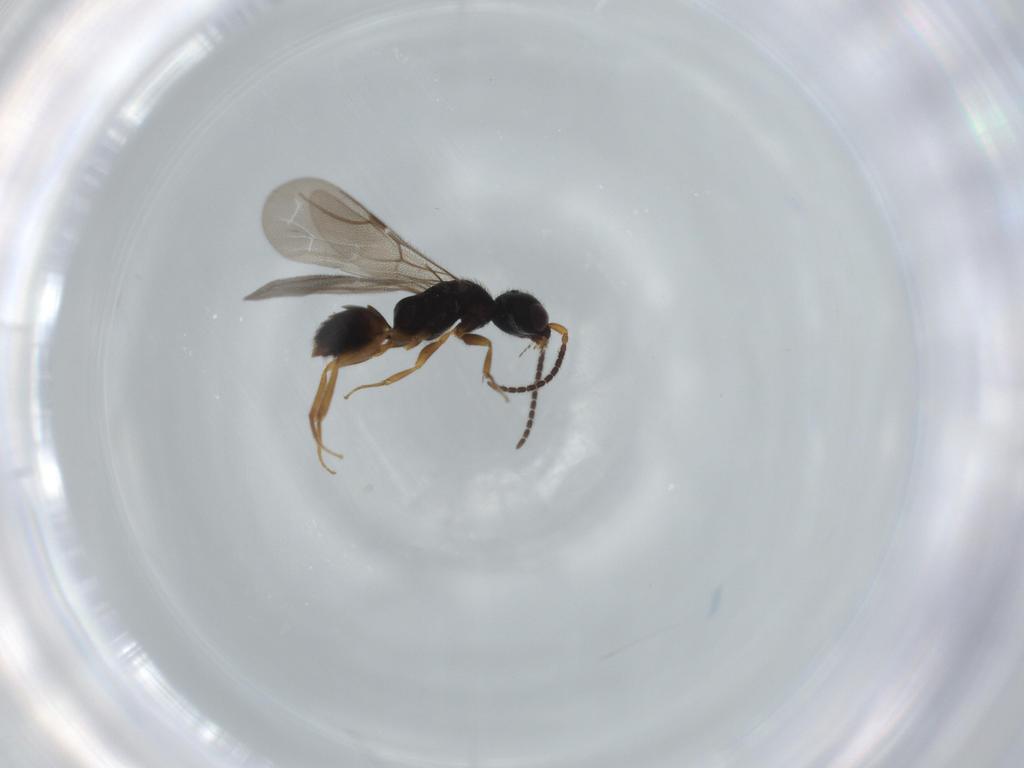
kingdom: Animalia
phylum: Arthropoda
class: Insecta
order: Hymenoptera
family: Bethylidae
